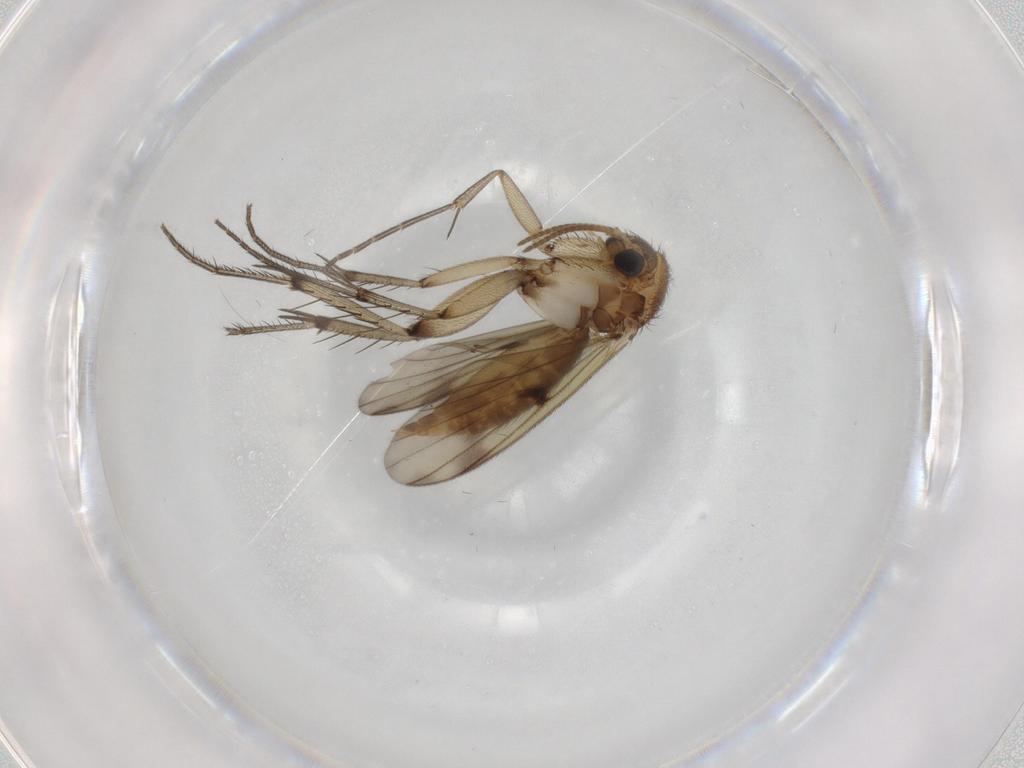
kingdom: Animalia
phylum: Arthropoda
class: Insecta
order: Diptera
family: Mycetophilidae
